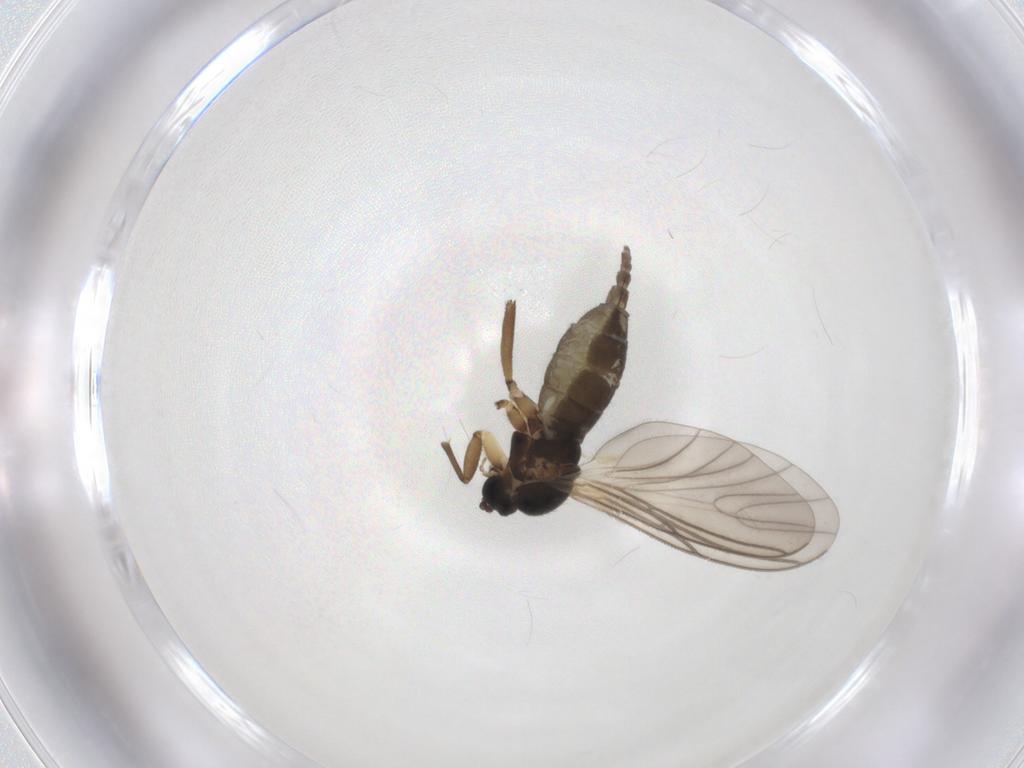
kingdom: Animalia
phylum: Arthropoda
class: Insecta
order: Diptera
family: Chironomidae
